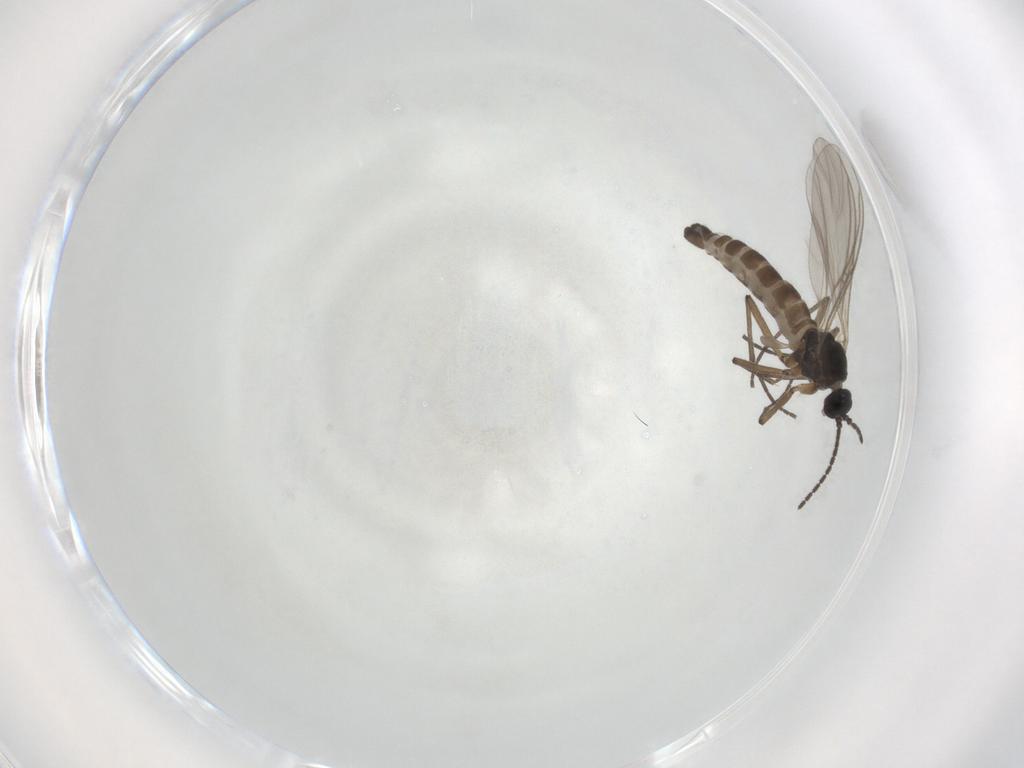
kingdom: Animalia
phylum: Arthropoda
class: Insecta
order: Diptera
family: Sciaridae
